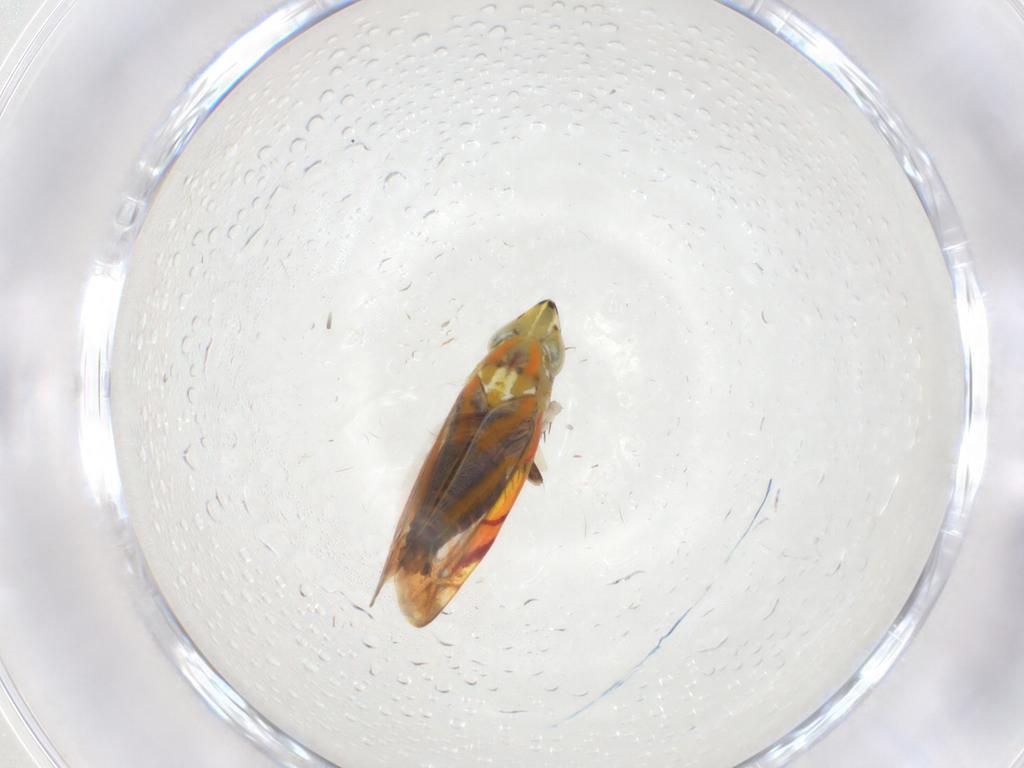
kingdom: Animalia
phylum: Arthropoda
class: Insecta
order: Hemiptera
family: Cicadellidae
